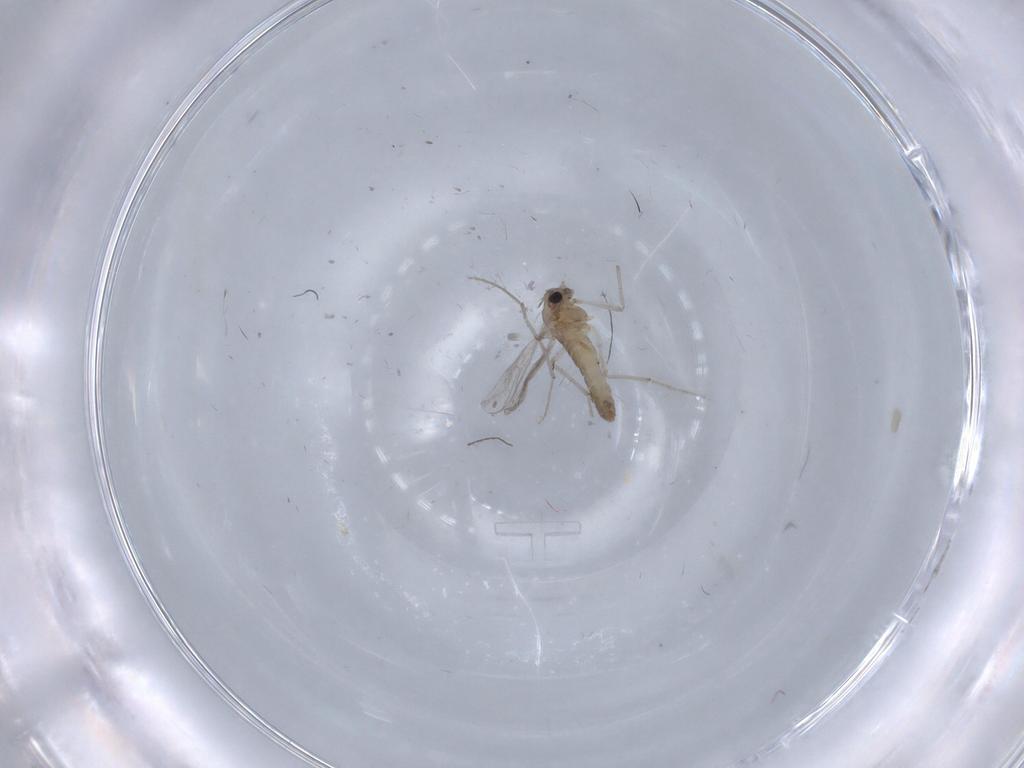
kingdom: Animalia
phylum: Arthropoda
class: Insecta
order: Diptera
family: Chironomidae
